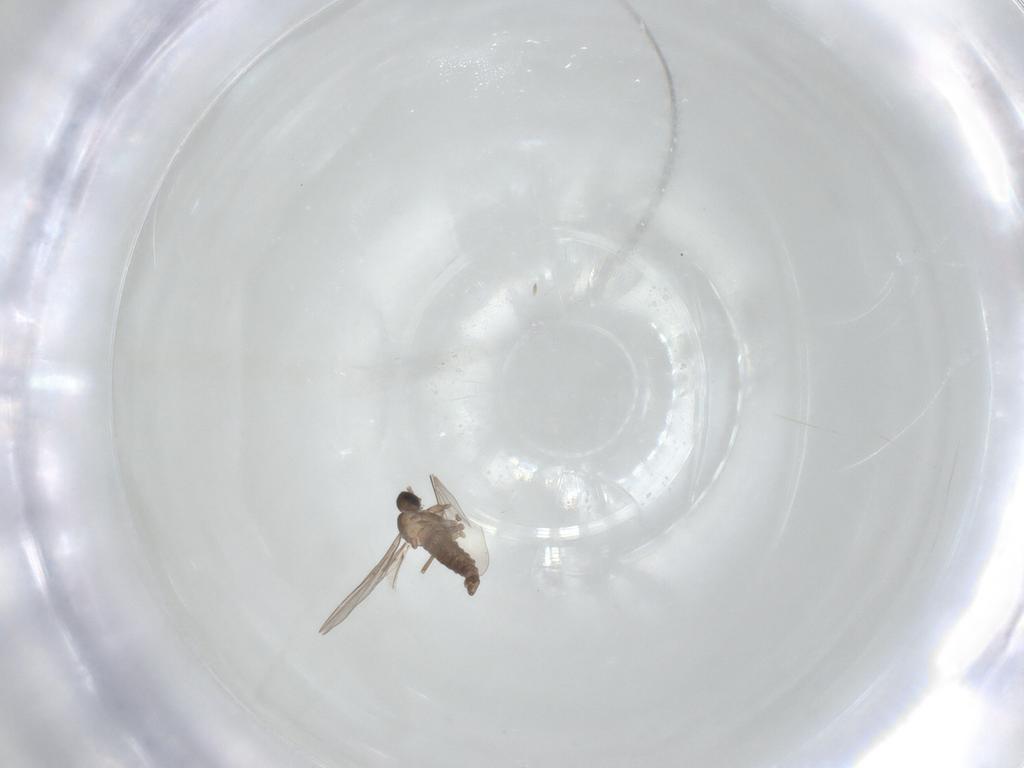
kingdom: Animalia
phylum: Arthropoda
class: Insecta
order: Diptera
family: Cecidomyiidae
